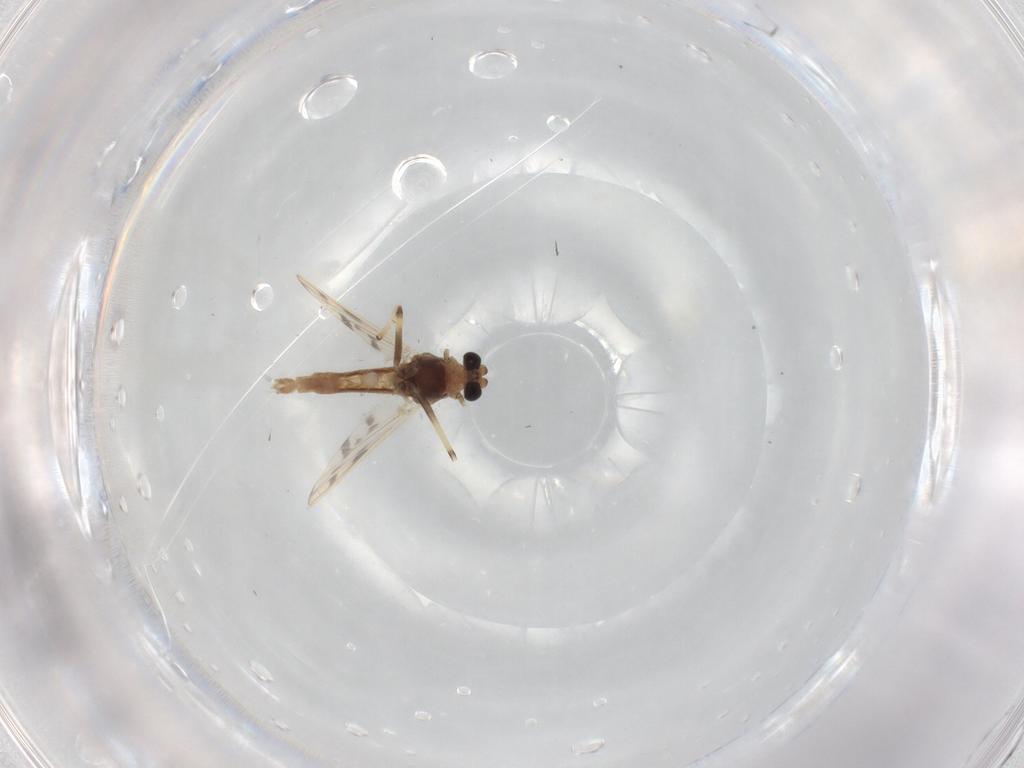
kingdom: Animalia
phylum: Arthropoda
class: Insecta
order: Diptera
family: Chironomidae
